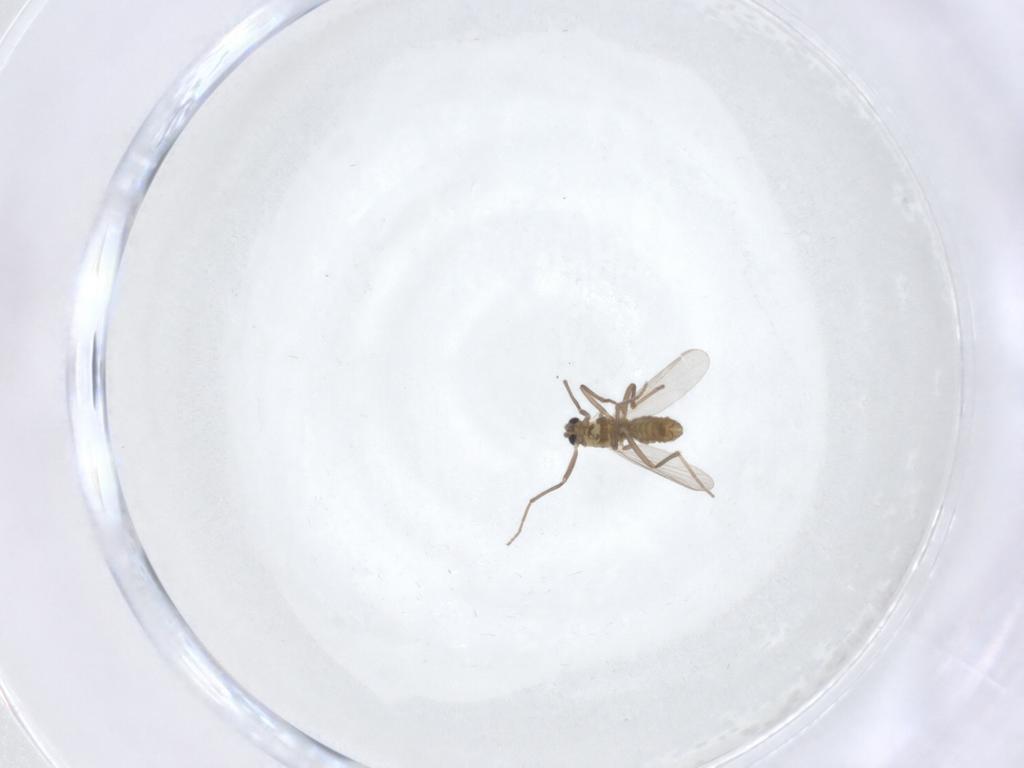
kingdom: Animalia
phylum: Arthropoda
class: Insecta
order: Diptera
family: Chironomidae
